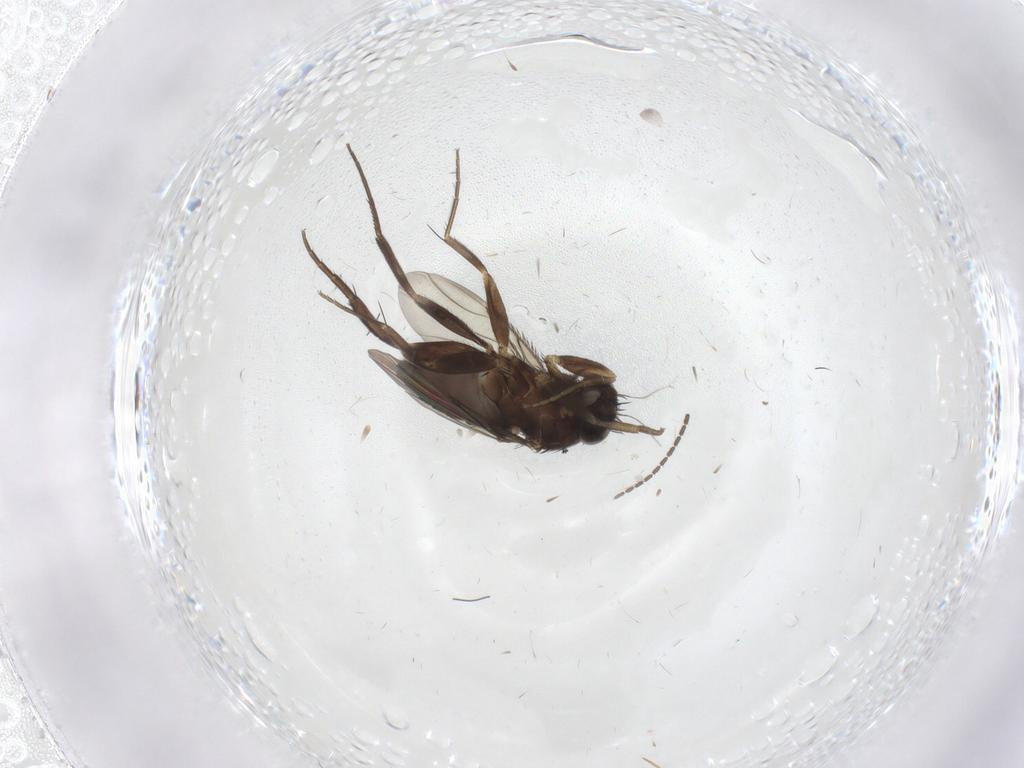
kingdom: Animalia
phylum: Arthropoda
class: Insecta
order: Diptera
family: Phoridae
